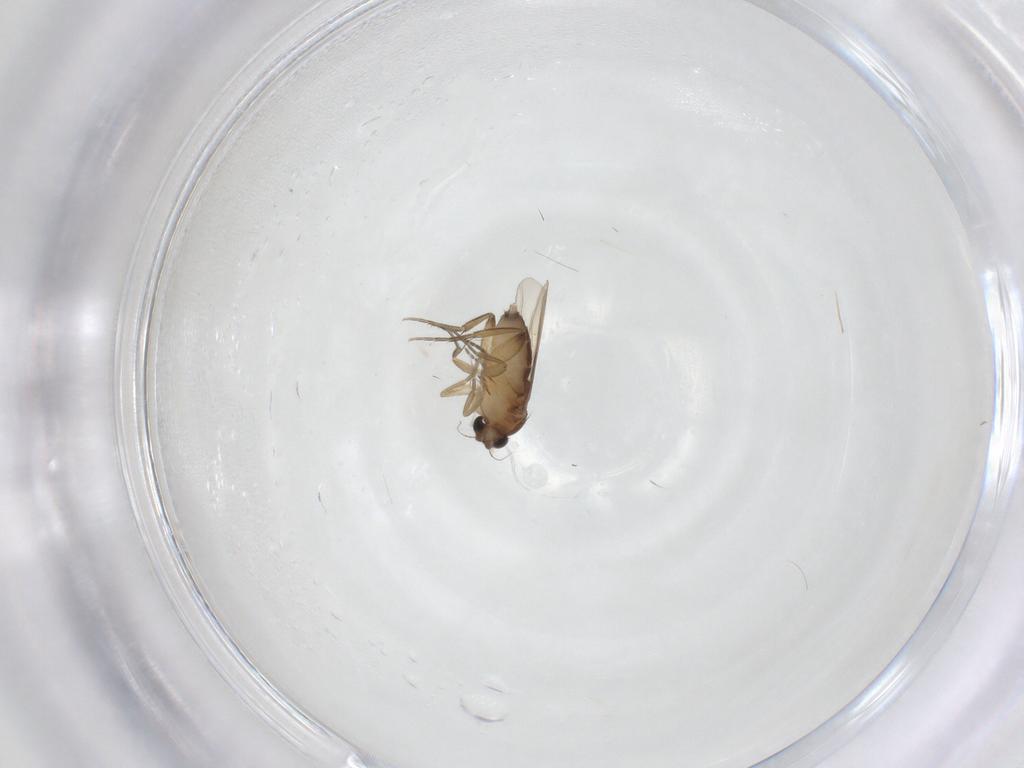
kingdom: Animalia
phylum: Arthropoda
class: Insecta
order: Diptera
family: Phoridae
